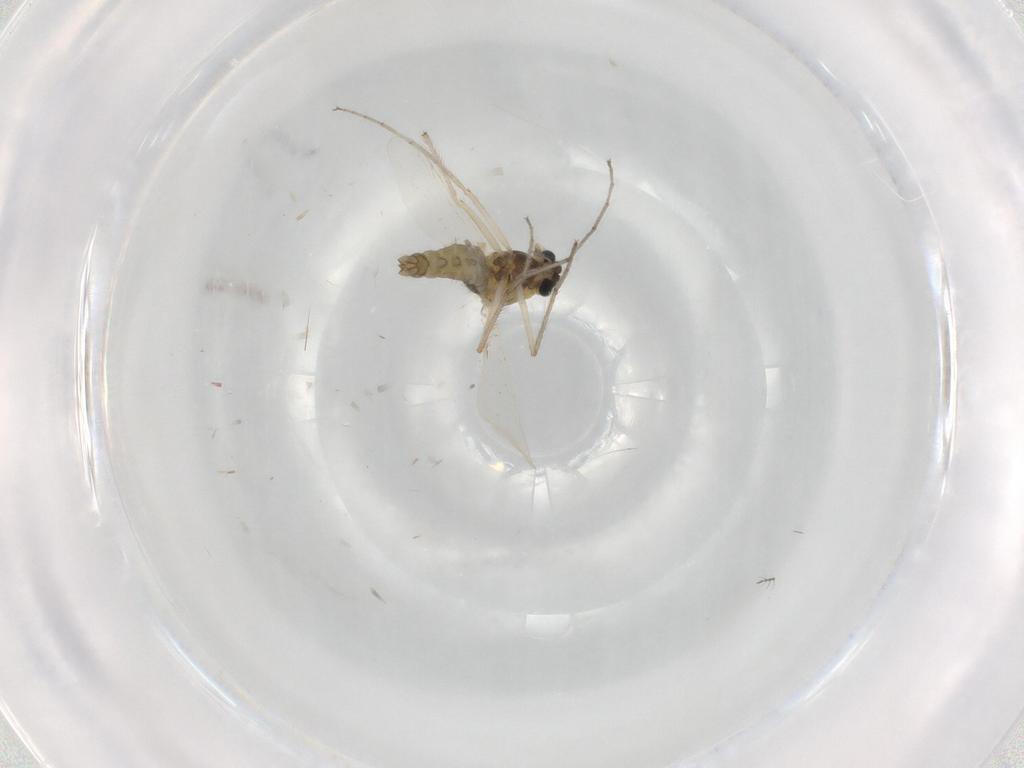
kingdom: Animalia
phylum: Arthropoda
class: Insecta
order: Diptera
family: Chironomidae
